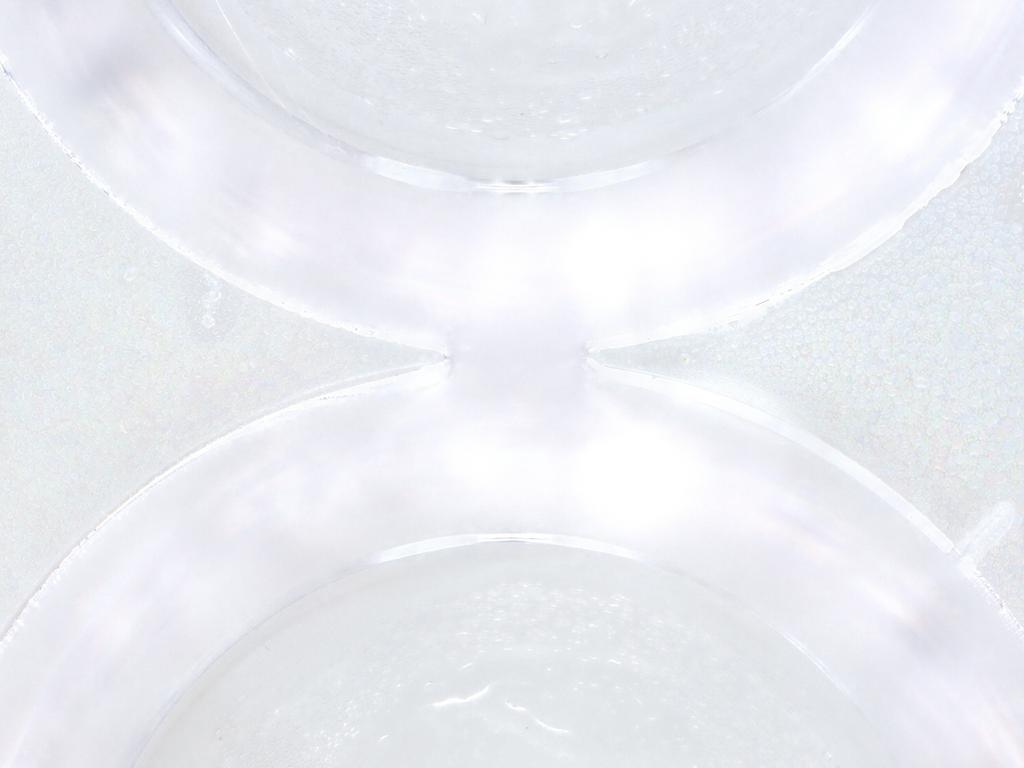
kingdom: Animalia
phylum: Arthropoda
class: Insecta
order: Diptera
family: Ceratopogonidae
